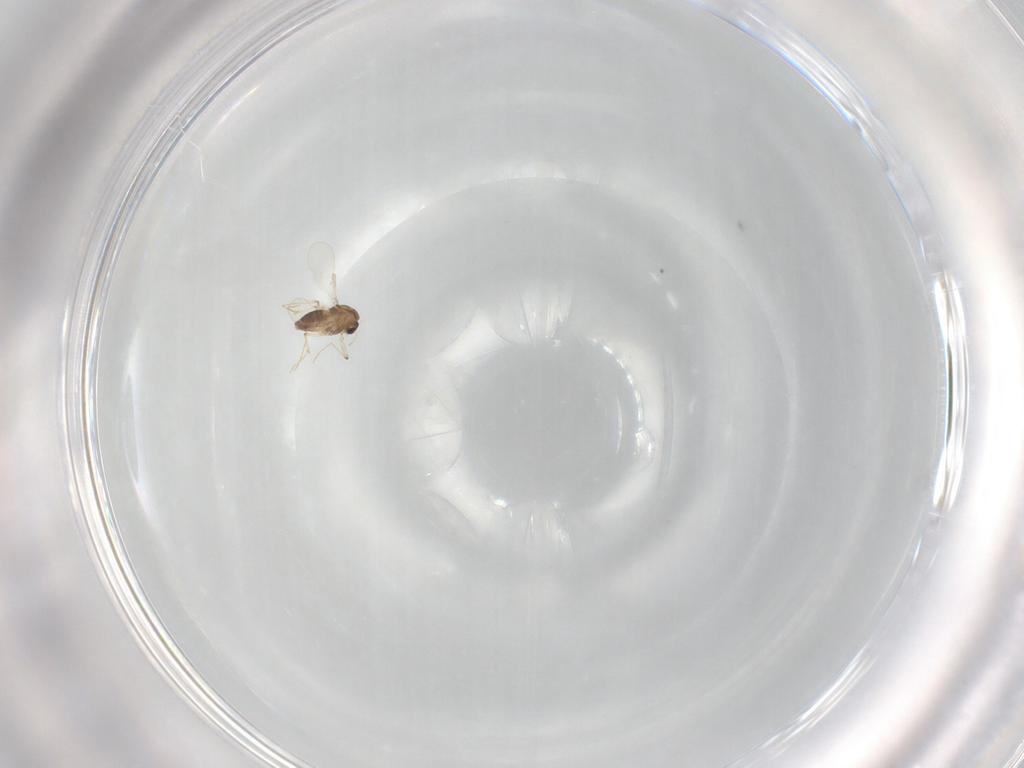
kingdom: Animalia
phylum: Arthropoda
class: Insecta
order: Diptera
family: Chironomidae
